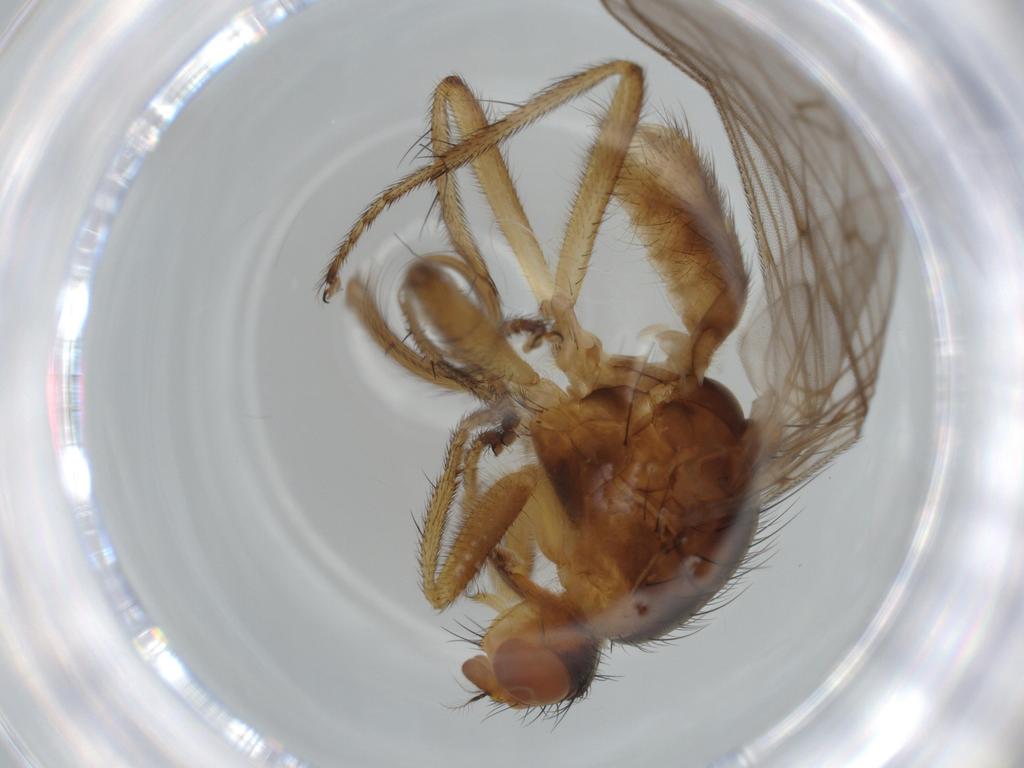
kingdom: Animalia
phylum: Arthropoda
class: Insecta
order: Diptera
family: Scathophagidae
